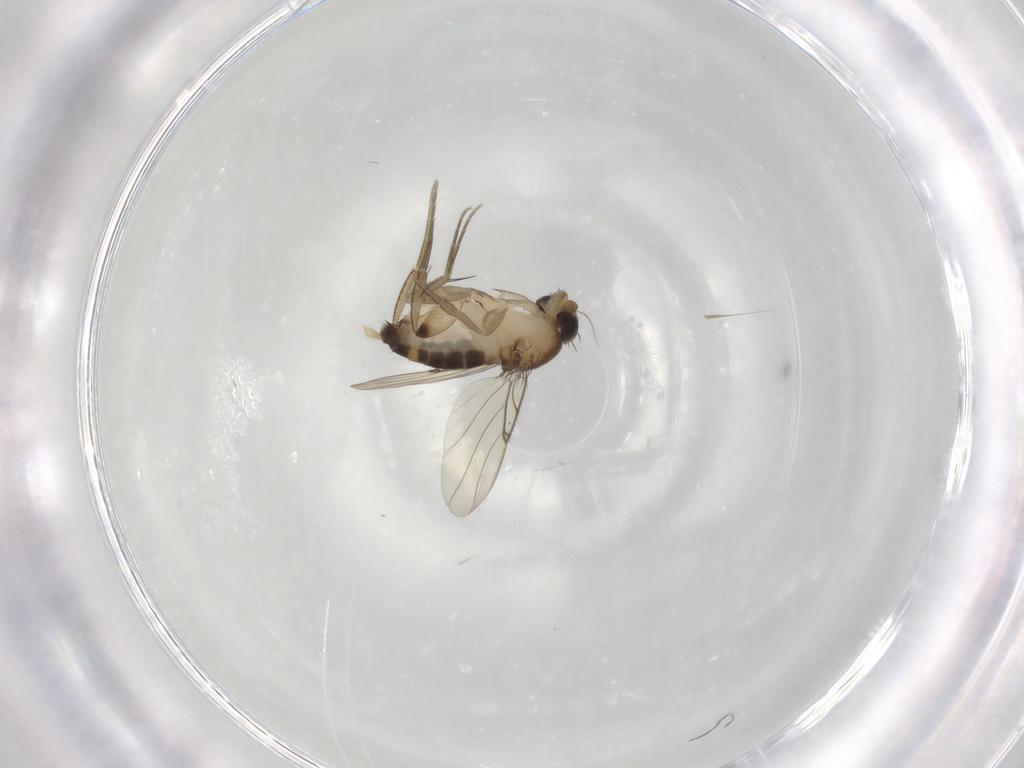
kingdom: Animalia
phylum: Arthropoda
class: Insecta
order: Diptera
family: Phoridae
